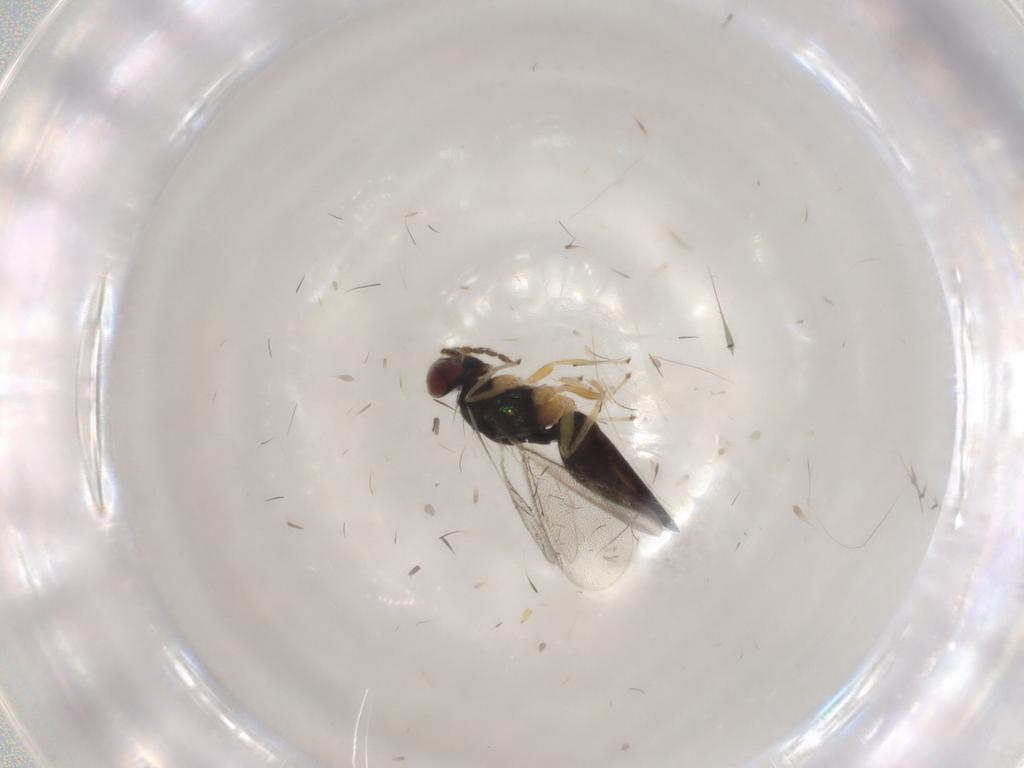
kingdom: Animalia
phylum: Arthropoda
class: Insecta
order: Hymenoptera
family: Eulophidae
